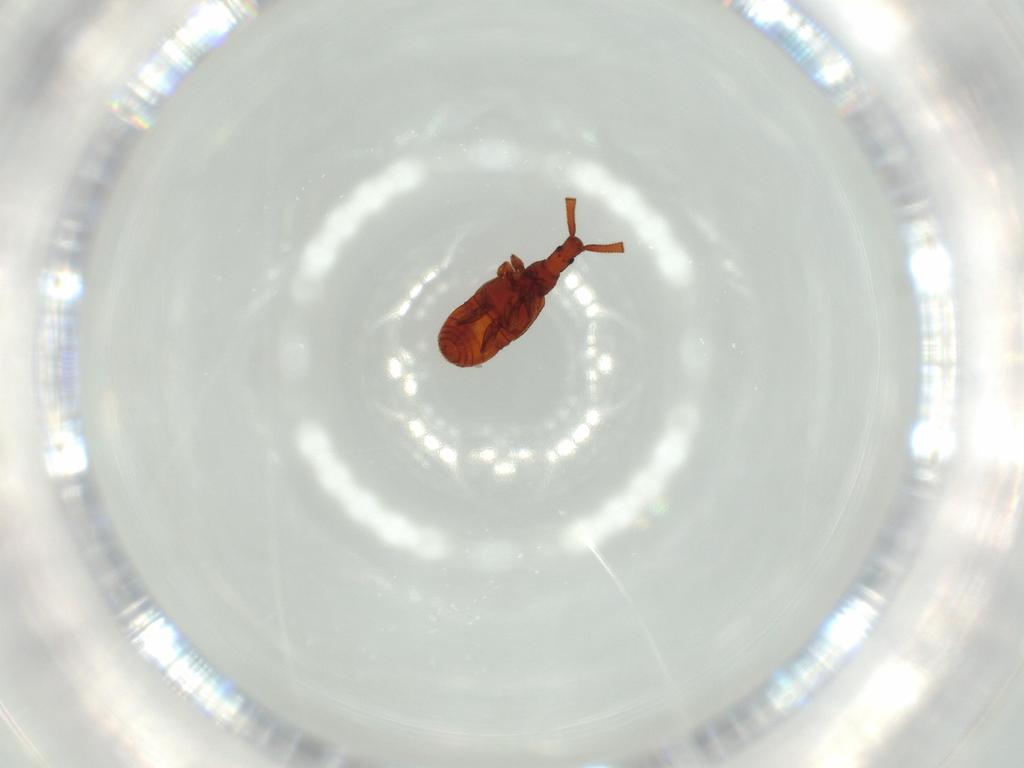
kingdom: Animalia
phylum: Arthropoda
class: Insecta
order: Coleoptera
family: Staphylinidae
